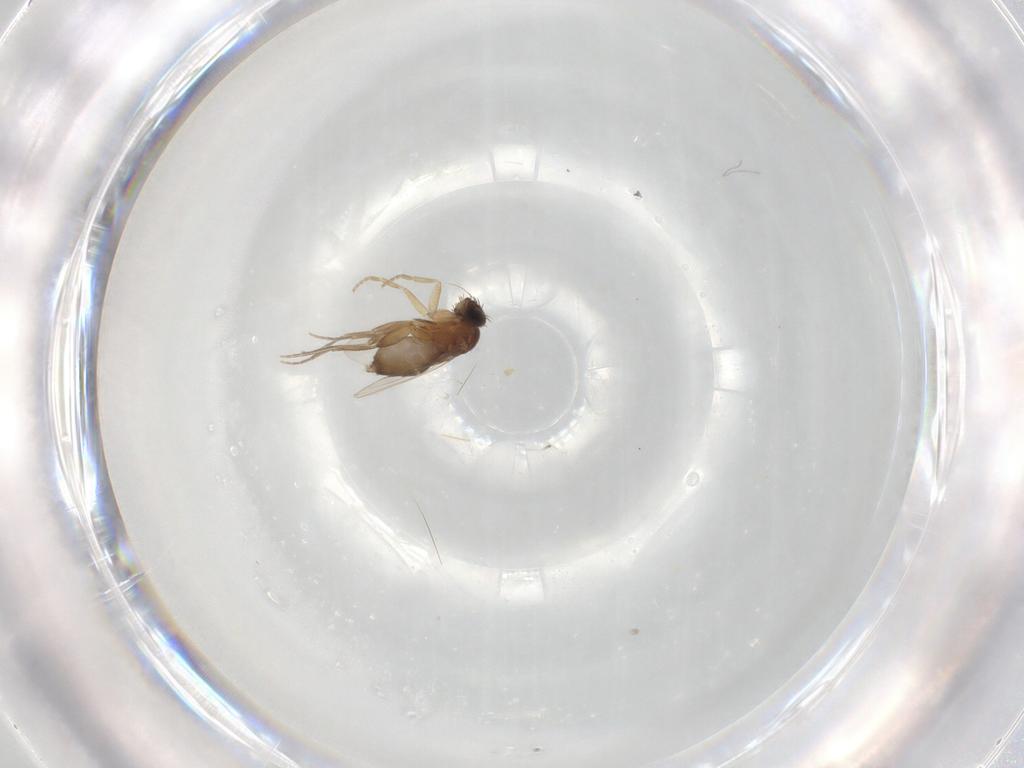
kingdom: Animalia
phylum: Arthropoda
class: Insecta
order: Diptera
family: Phoridae
